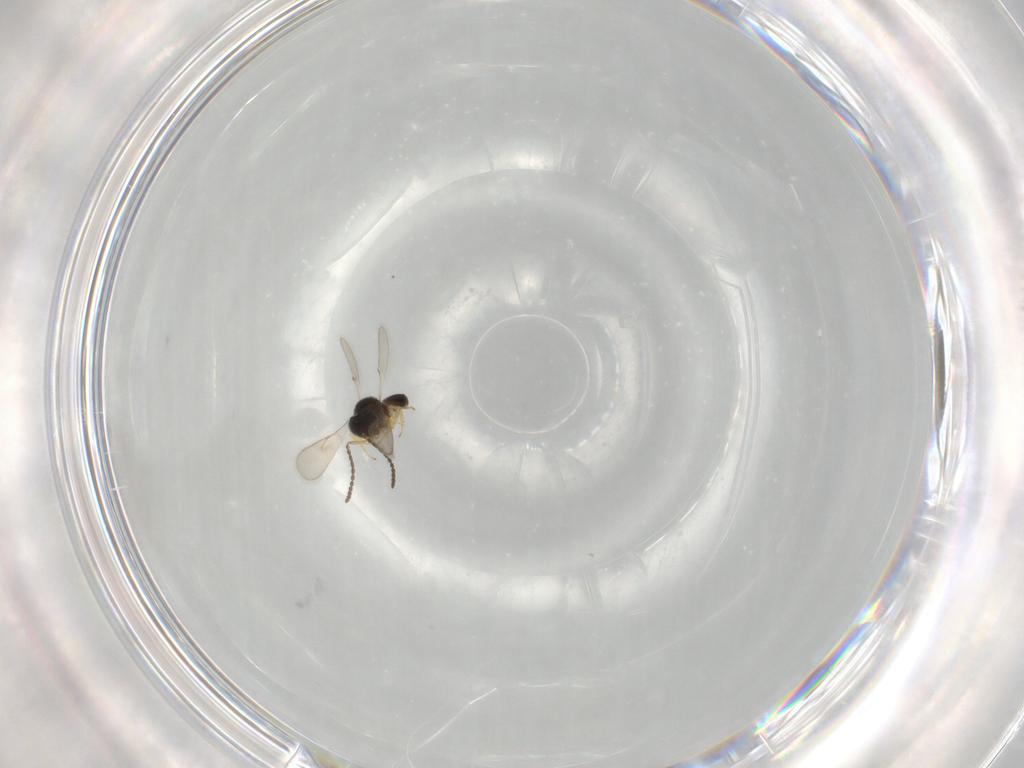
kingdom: Animalia
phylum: Arthropoda
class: Insecta
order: Hymenoptera
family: Scelionidae
